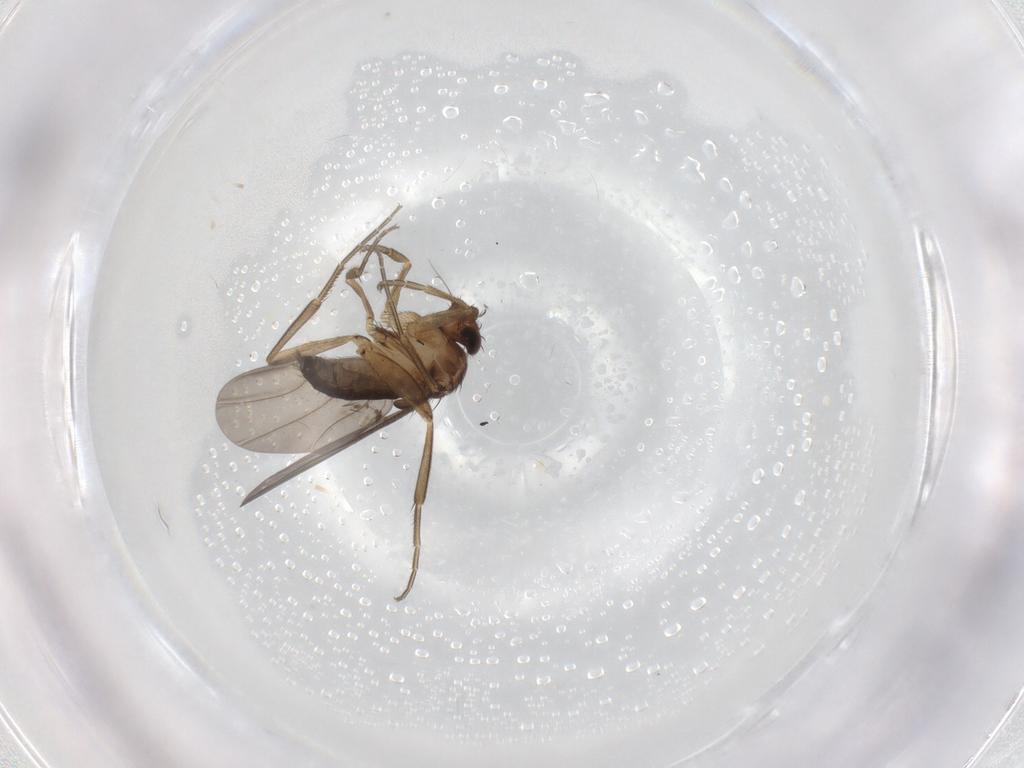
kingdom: Animalia
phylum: Arthropoda
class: Insecta
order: Diptera
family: Phoridae
